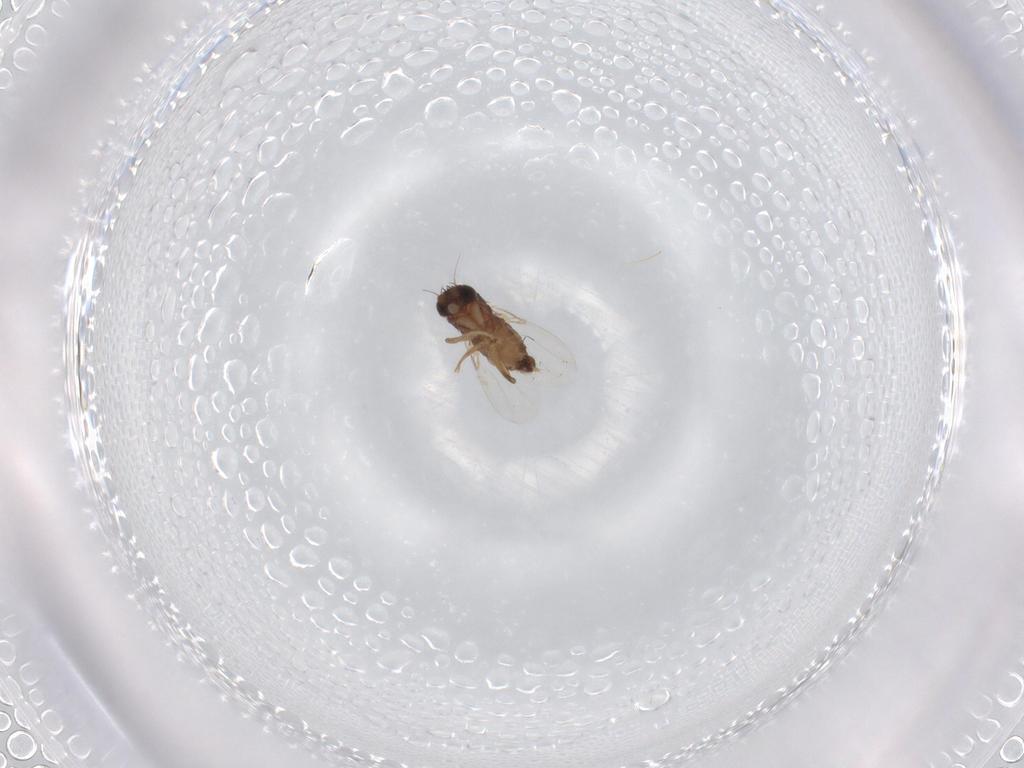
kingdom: Animalia
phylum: Arthropoda
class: Insecta
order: Diptera
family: Phoridae
